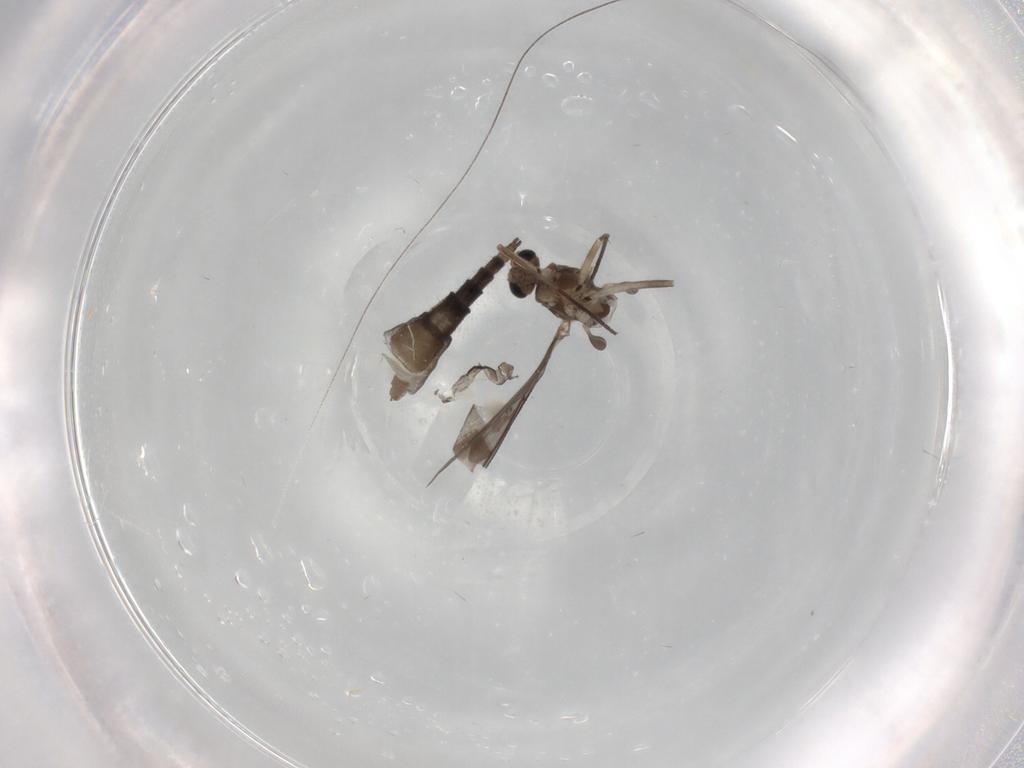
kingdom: Animalia
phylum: Arthropoda
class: Insecta
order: Diptera
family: Sciaridae
